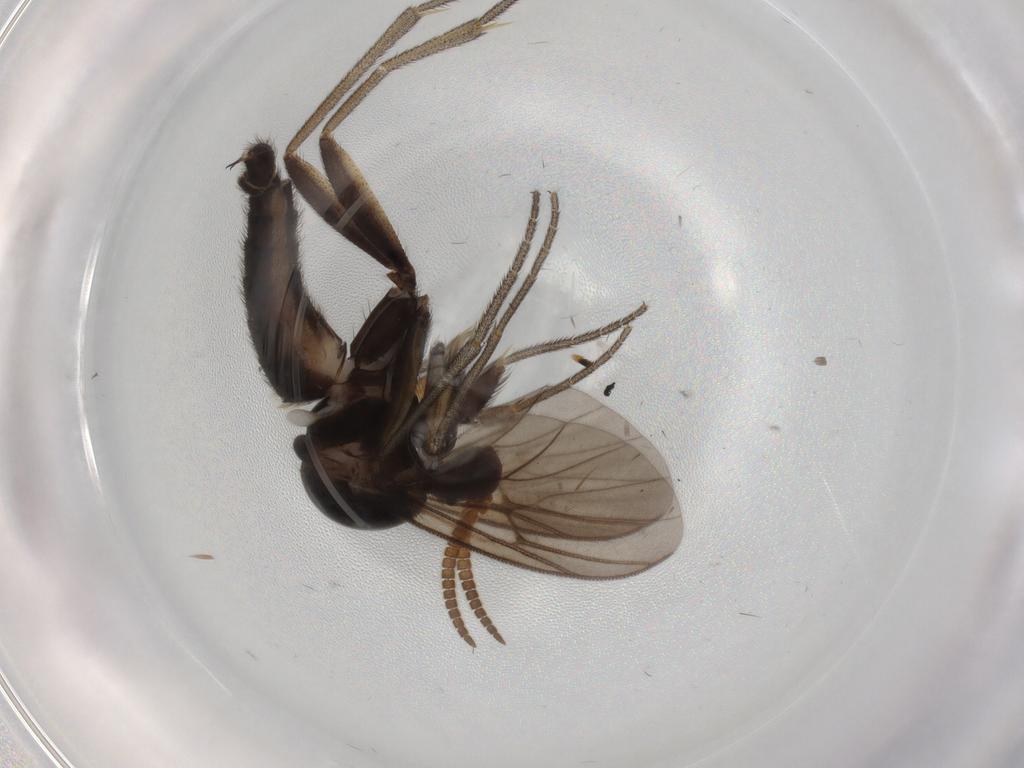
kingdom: Animalia
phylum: Arthropoda
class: Insecta
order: Diptera
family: Mycetophilidae
